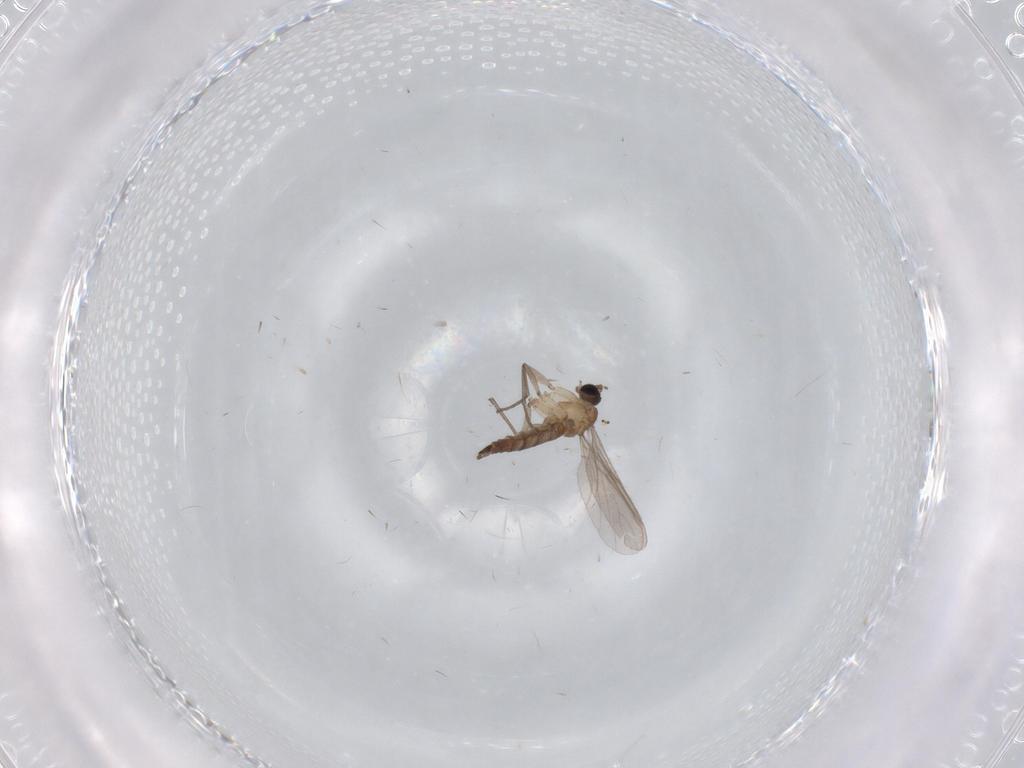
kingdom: Animalia
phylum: Arthropoda
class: Insecta
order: Diptera
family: Sciaridae
